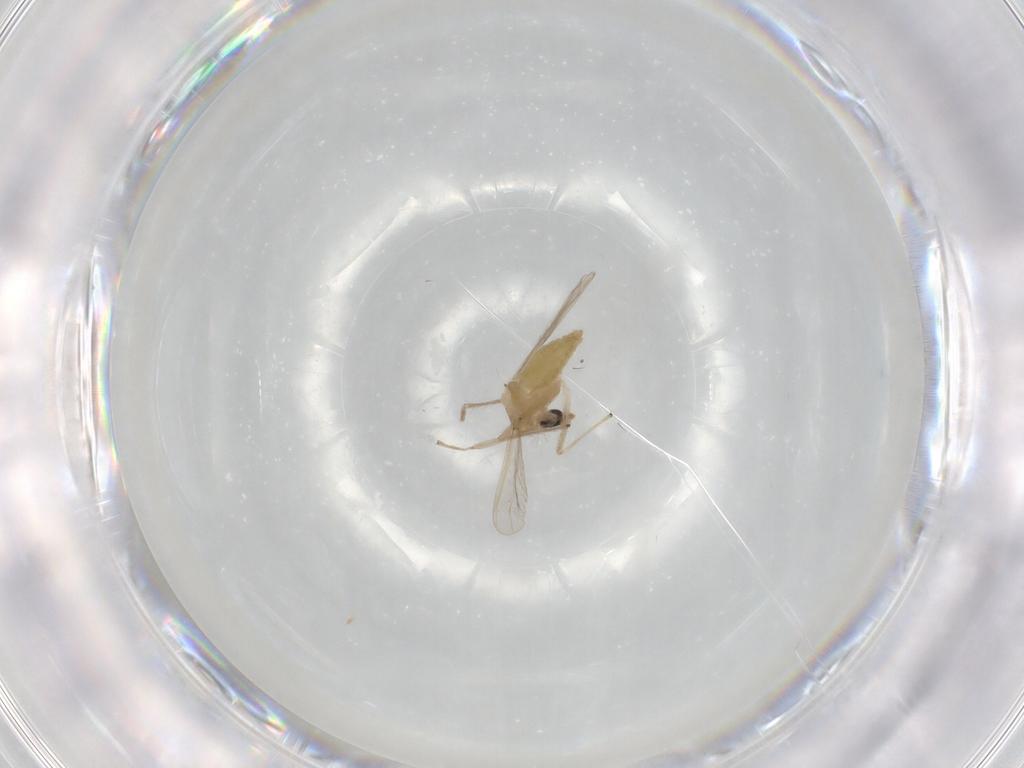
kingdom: Animalia
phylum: Arthropoda
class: Insecta
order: Diptera
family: Chironomidae
